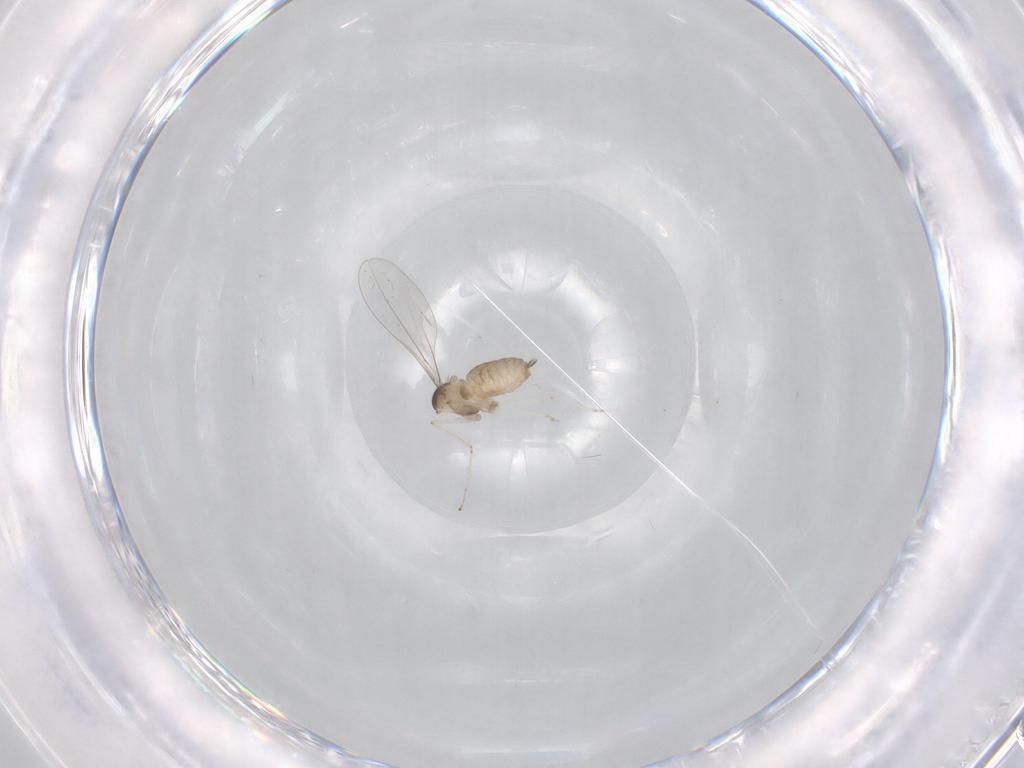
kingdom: Animalia
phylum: Arthropoda
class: Insecta
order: Diptera
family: Cecidomyiidae
